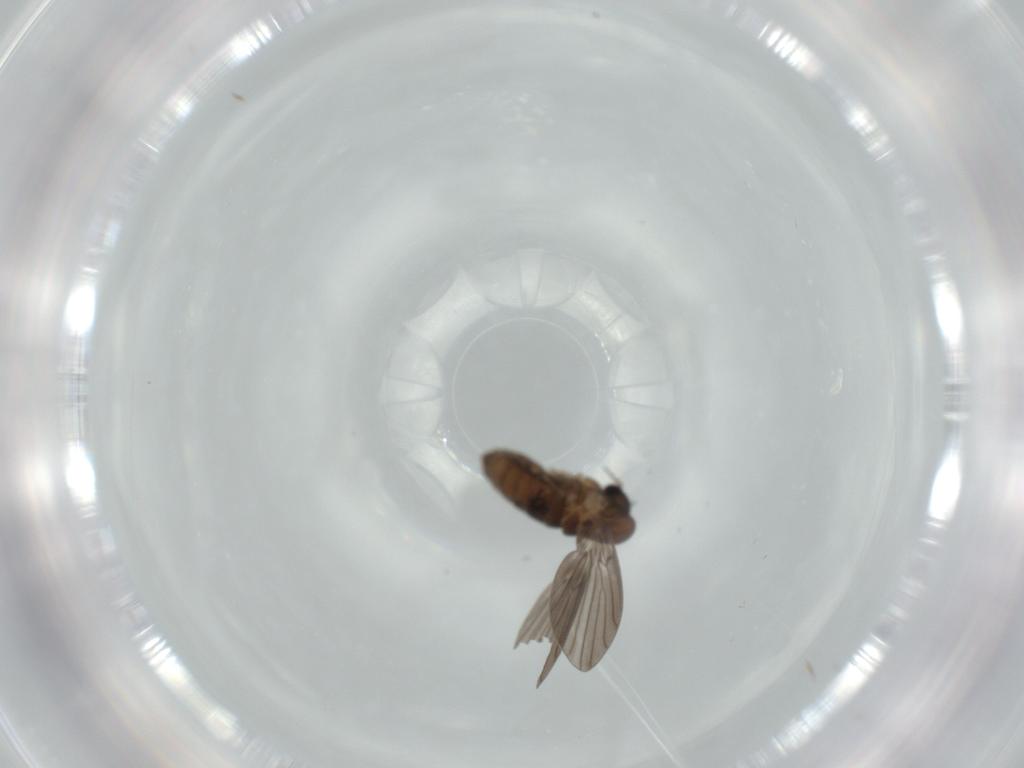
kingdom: Animalia
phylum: Arthropoda
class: Insecta
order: Diptera
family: Psychodidae
